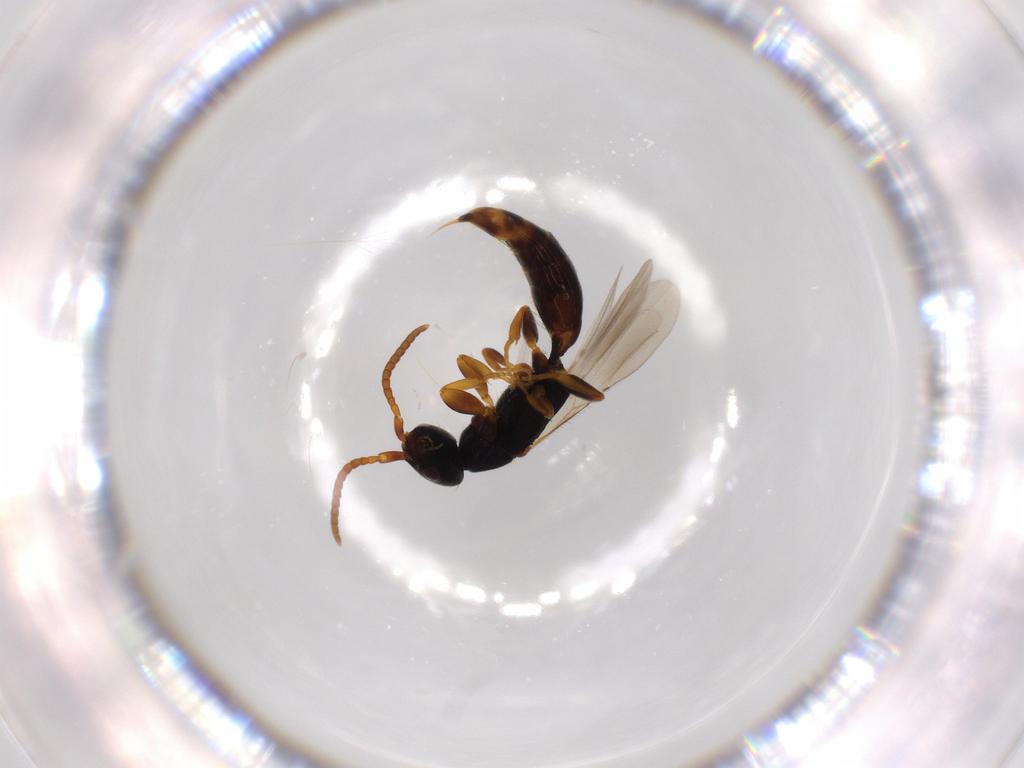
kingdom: Animalia
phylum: Arthropoda
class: Insecta
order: Hymenoptera
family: Bethylidae
